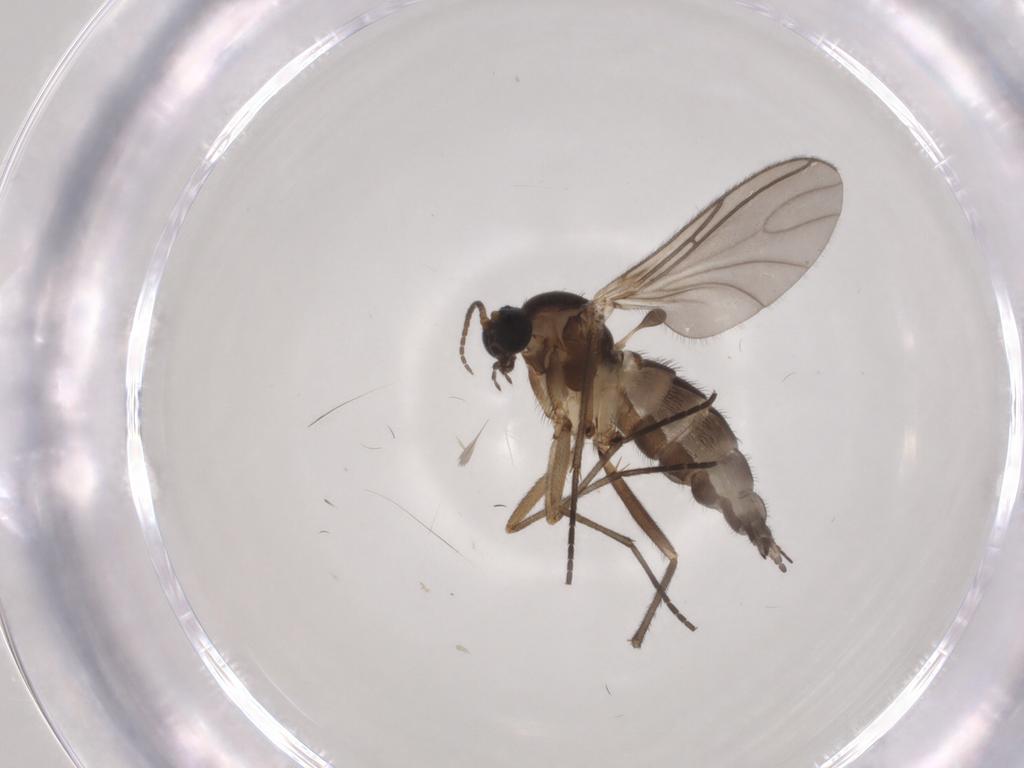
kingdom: Animalia
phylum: Arthropoda
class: Insecta
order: Diptera
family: Sciaridae
